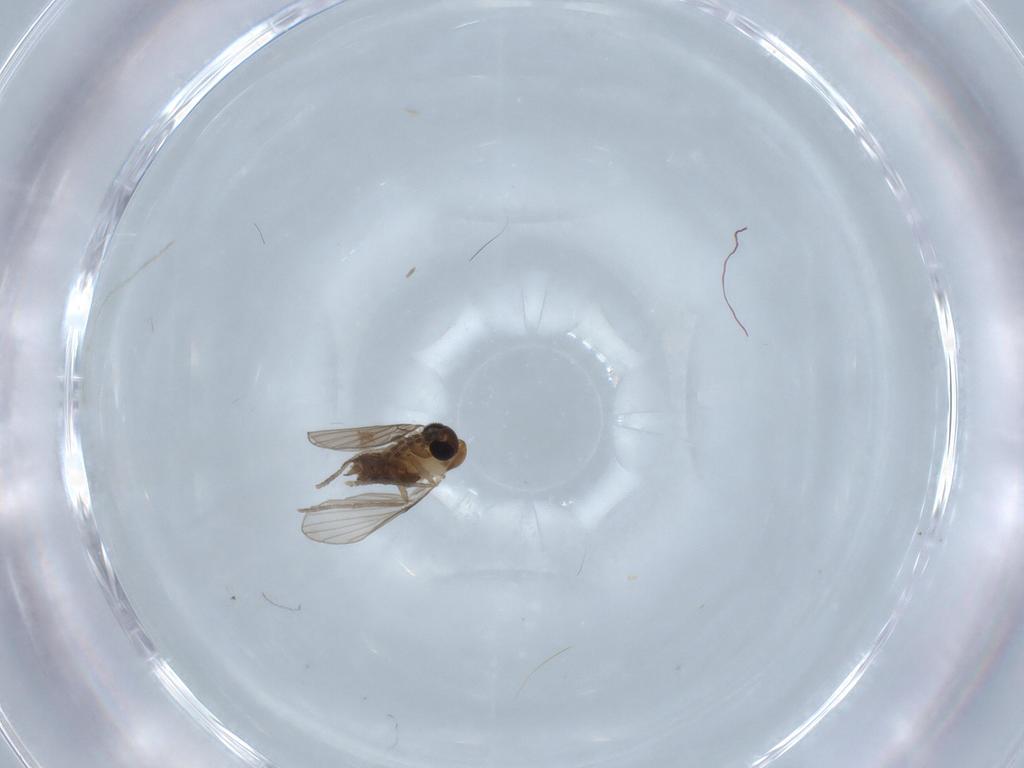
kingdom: Animalia
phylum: Arthropoda
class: Insecta
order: Diptera
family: Psychodidae
